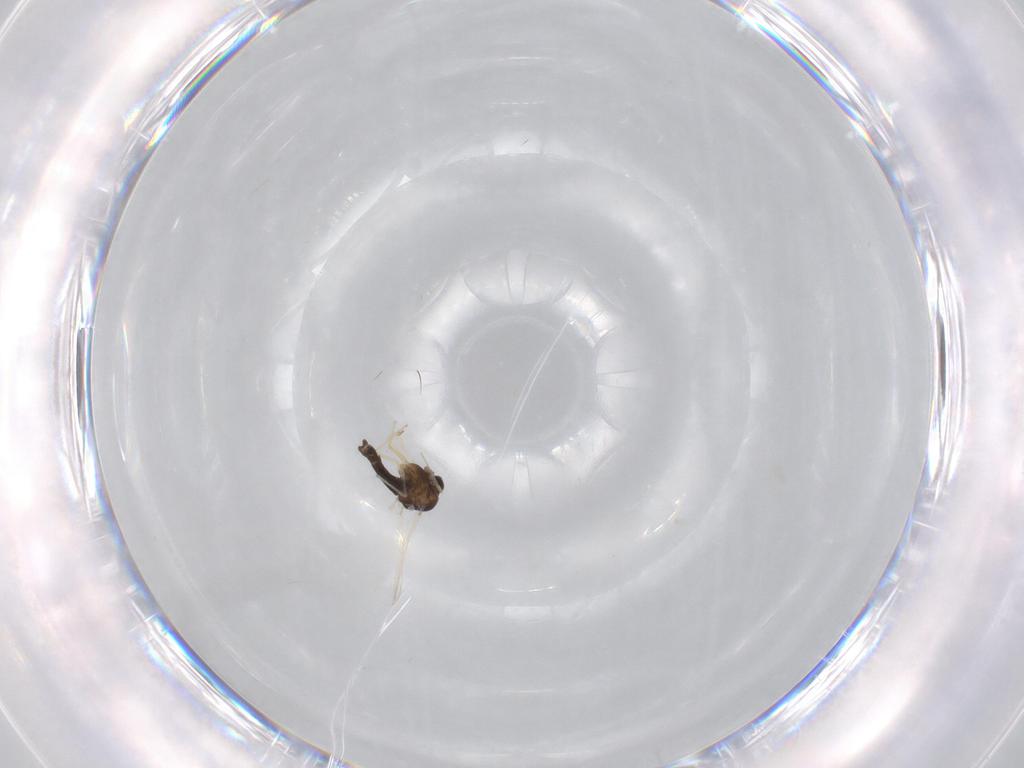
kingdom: Animalia
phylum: Arthropoda
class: Insecta
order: Diptera
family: Chironomidae
